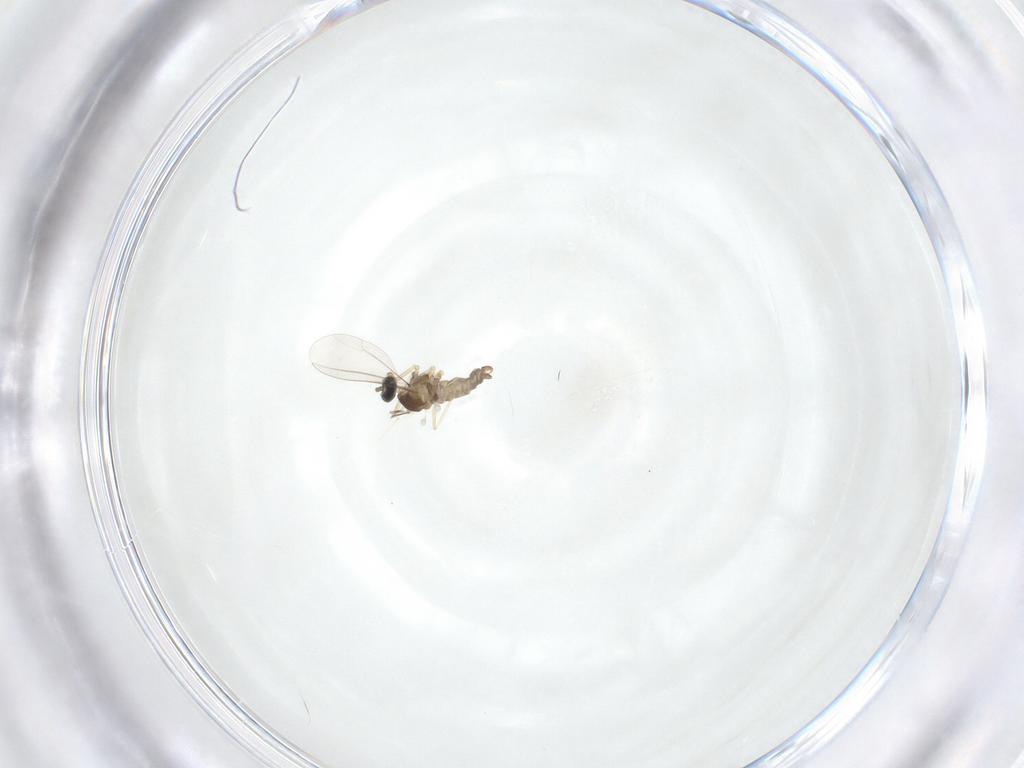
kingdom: Animalia
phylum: Arthropoda
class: Insecta
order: Diptera
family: Cecidomyiidae
